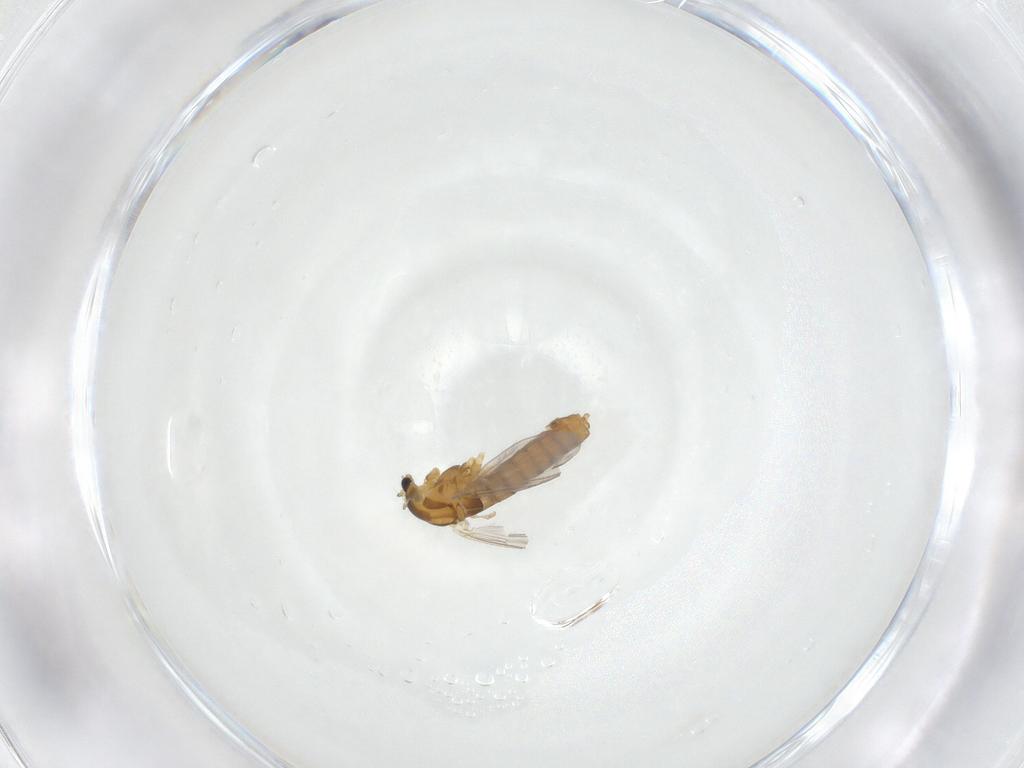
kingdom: Animalia
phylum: Arthropoda
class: Insecta
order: Diptera
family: Chironomidae
